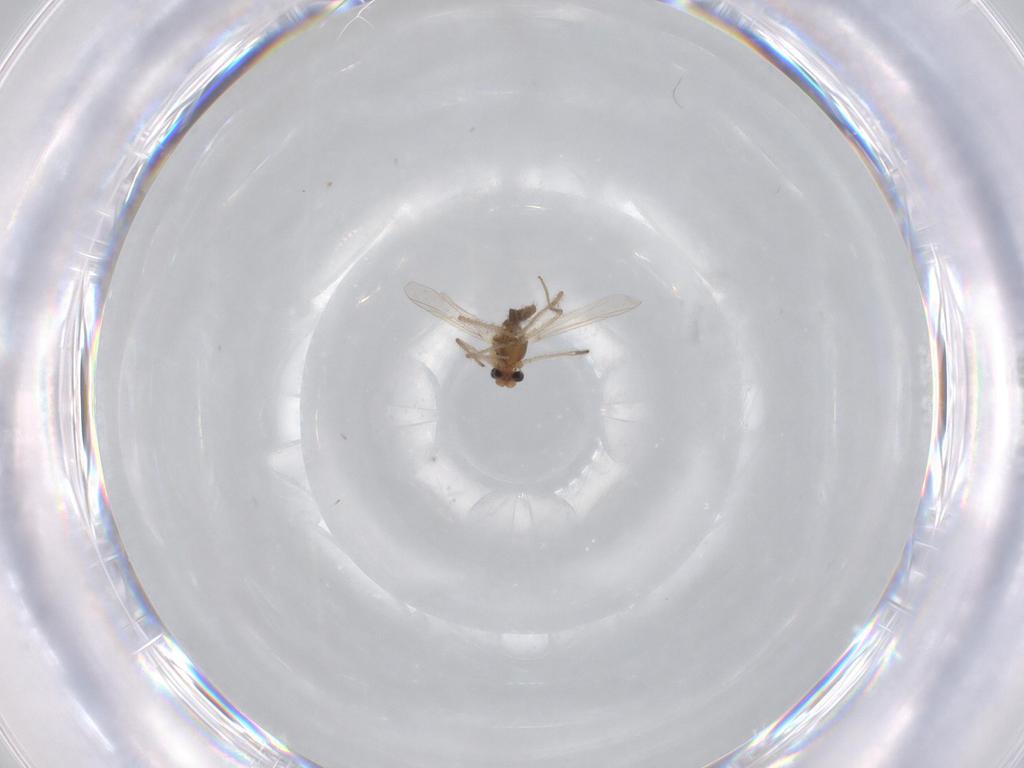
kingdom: Animalia
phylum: Arthropoda
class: Insecta
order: Diptera
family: Chironomidae
